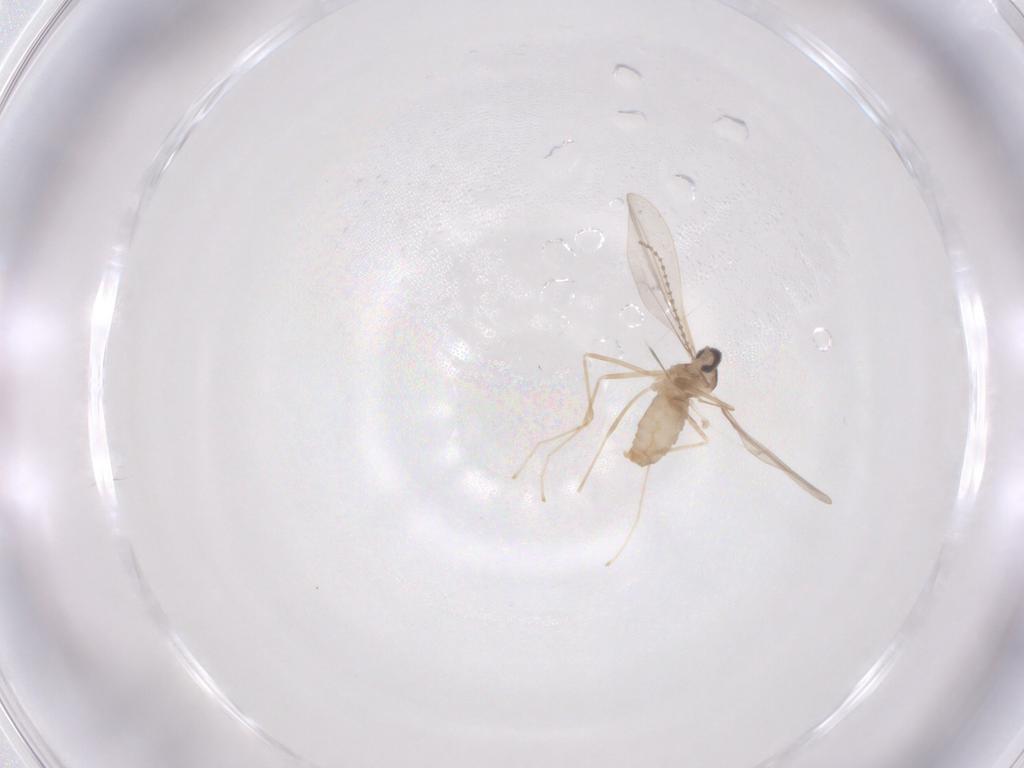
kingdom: Animalia
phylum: Arthropoda
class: Insecta
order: Diptera
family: Cecidomyiidae
